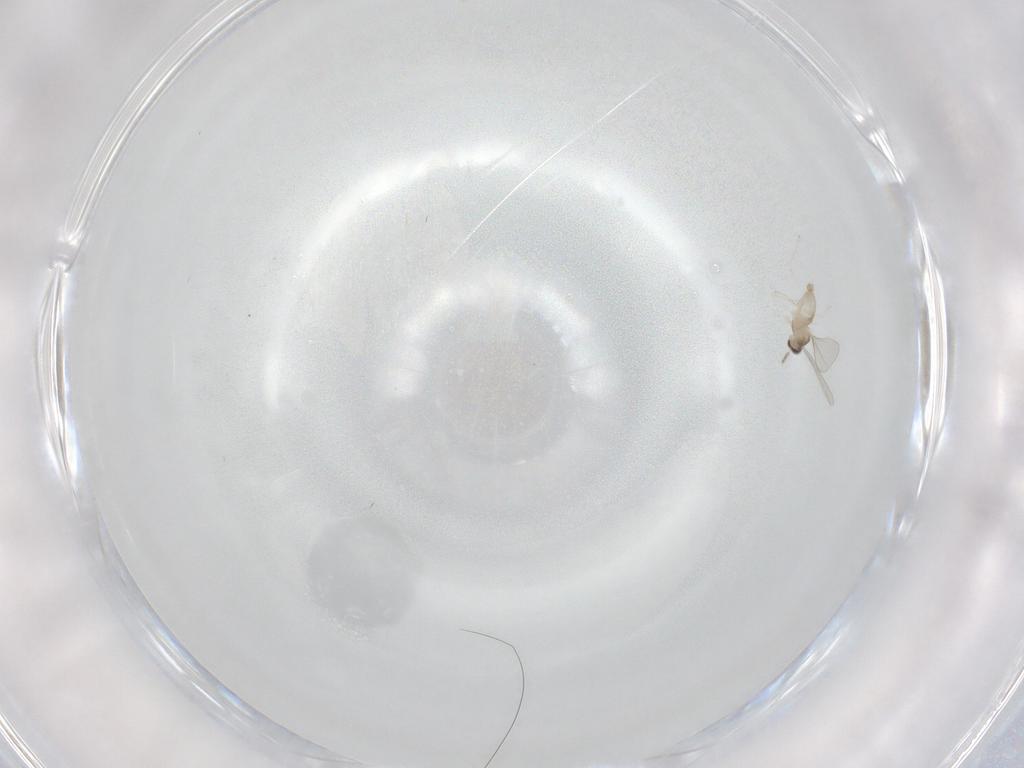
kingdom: Animalia
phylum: Arthropoda
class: Insecta
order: Diptera
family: Cecidomyiidae
